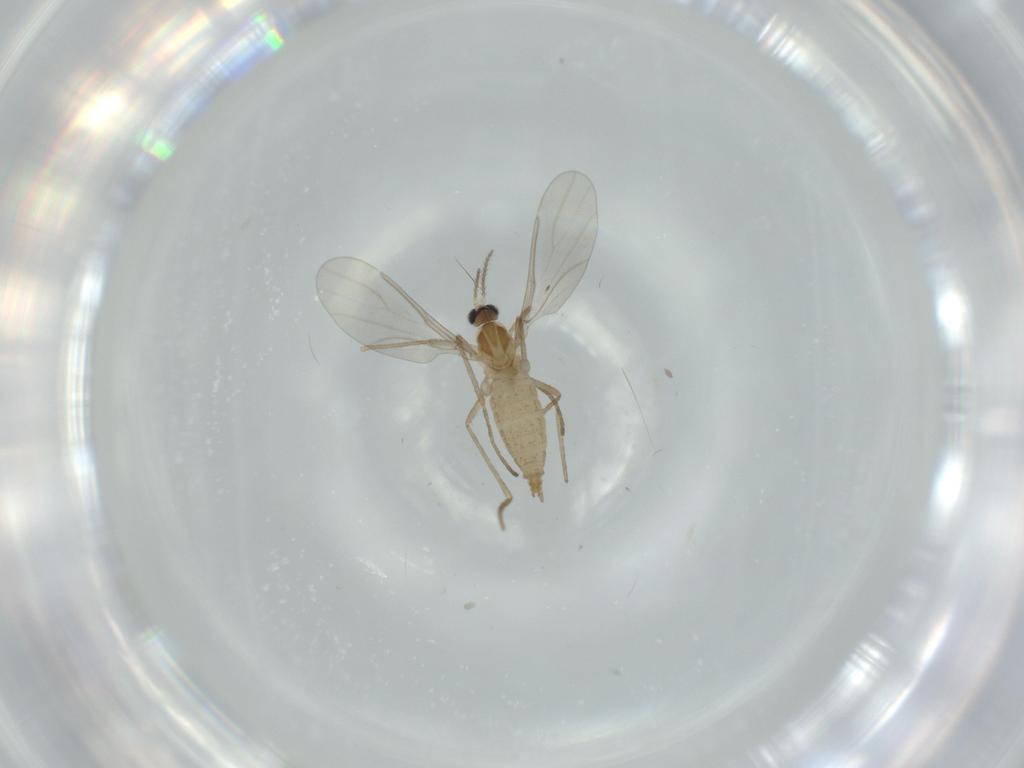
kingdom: Animalia
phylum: Arthropoda
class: Insecta
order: Diptera
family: Cecidomyiidae
